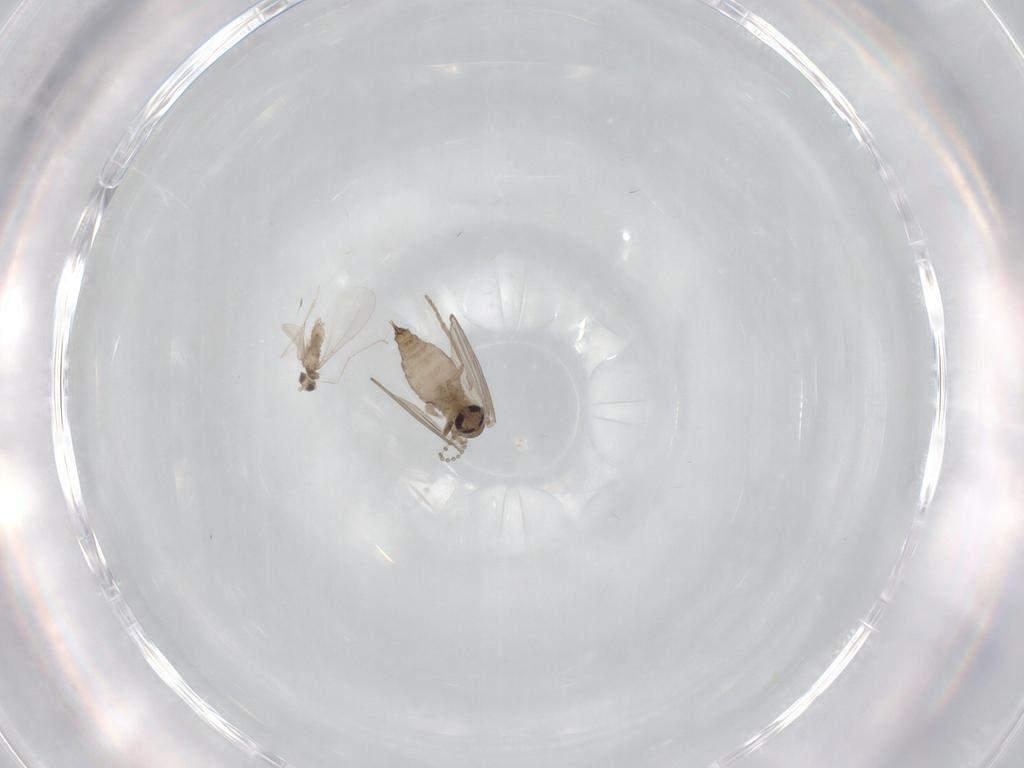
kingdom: Animalia
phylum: Arthropoda
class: Insecta
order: Diptera
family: Cecidomyiidae
